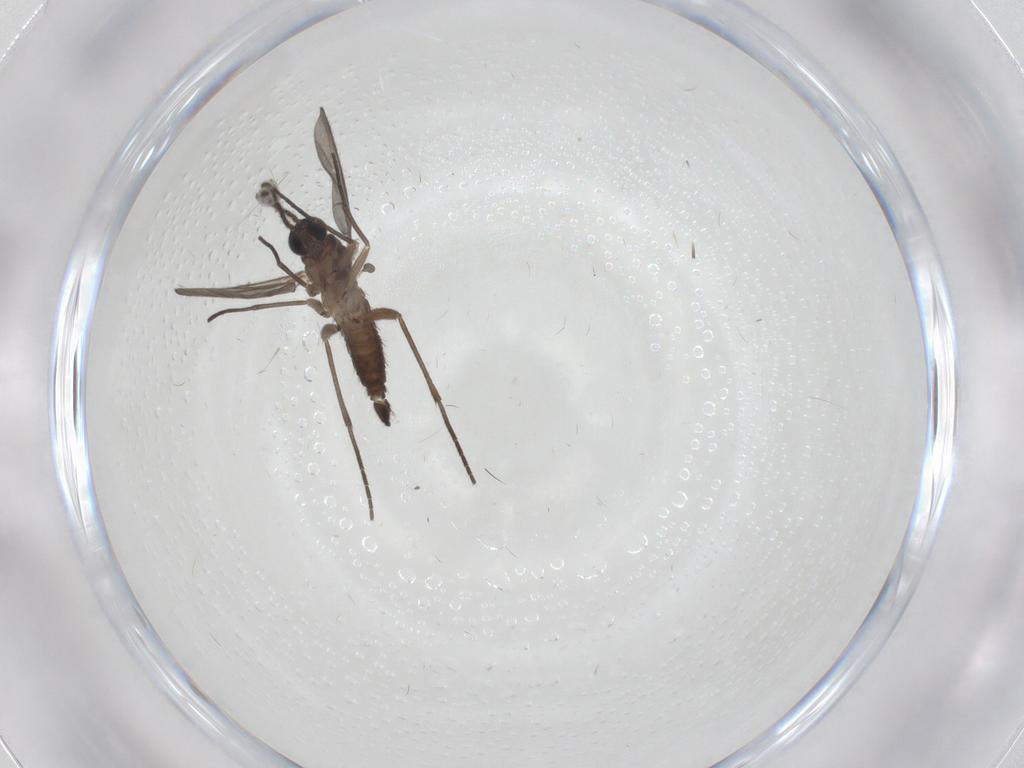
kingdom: Animalia
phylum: Arthropoda
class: Insecta
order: Diptera
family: Sciaridae
